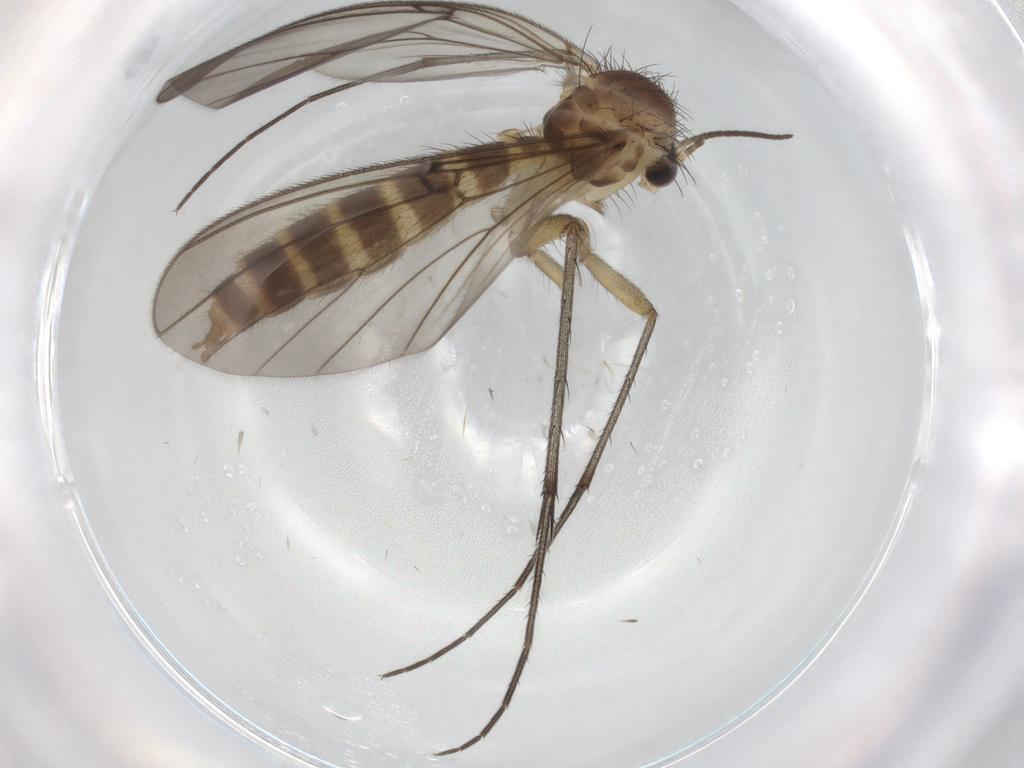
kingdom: Animalia
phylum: Arthropoda
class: Insecta
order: Diptera
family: Mycetophilidae
